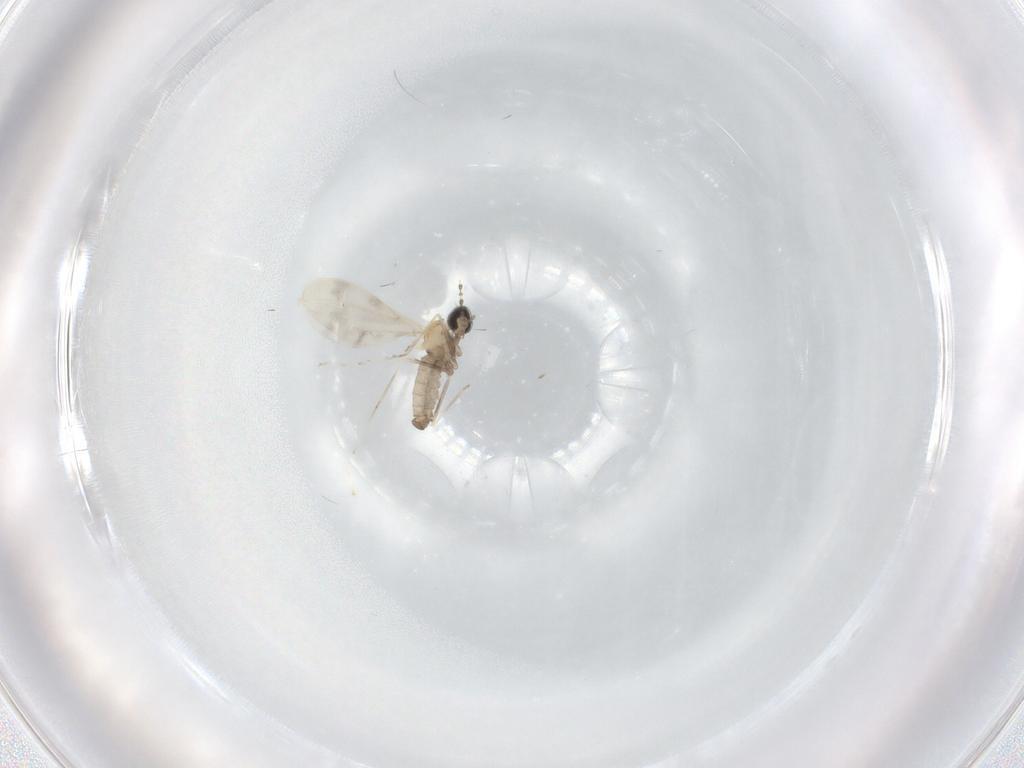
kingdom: Animalia
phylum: Arthropoda
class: Insecta
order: Diptera
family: Cecidomyiidae
